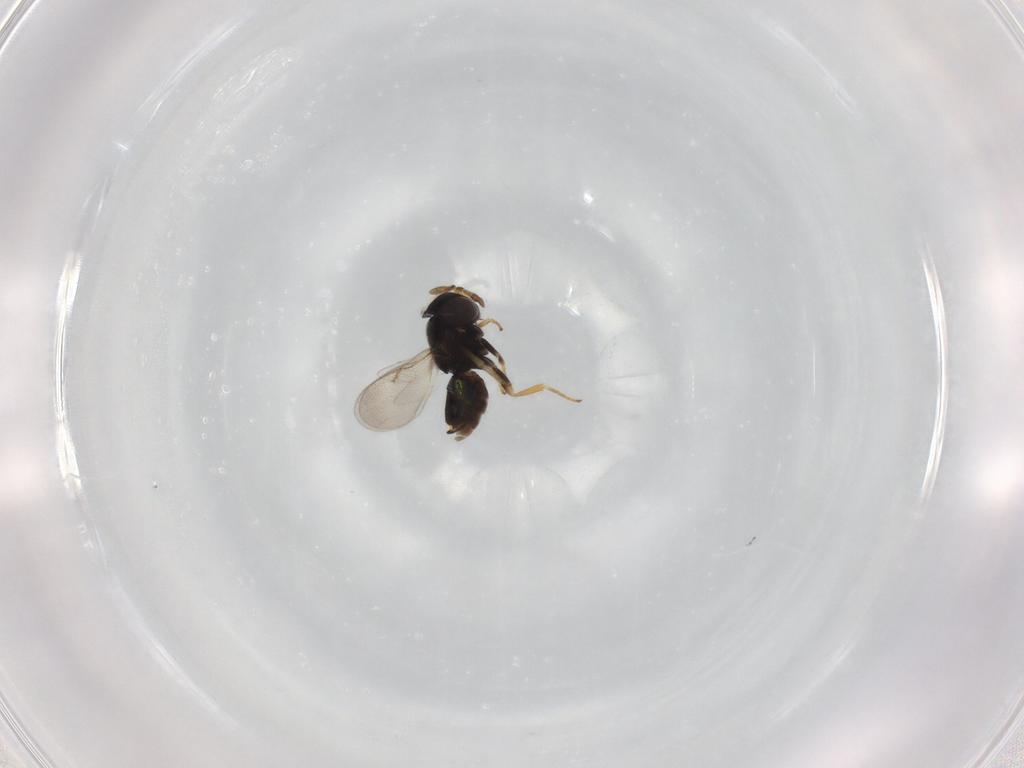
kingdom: Animalia
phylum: Arthropoda
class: Insecta
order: Hymenoptera
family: Encyrtidae
